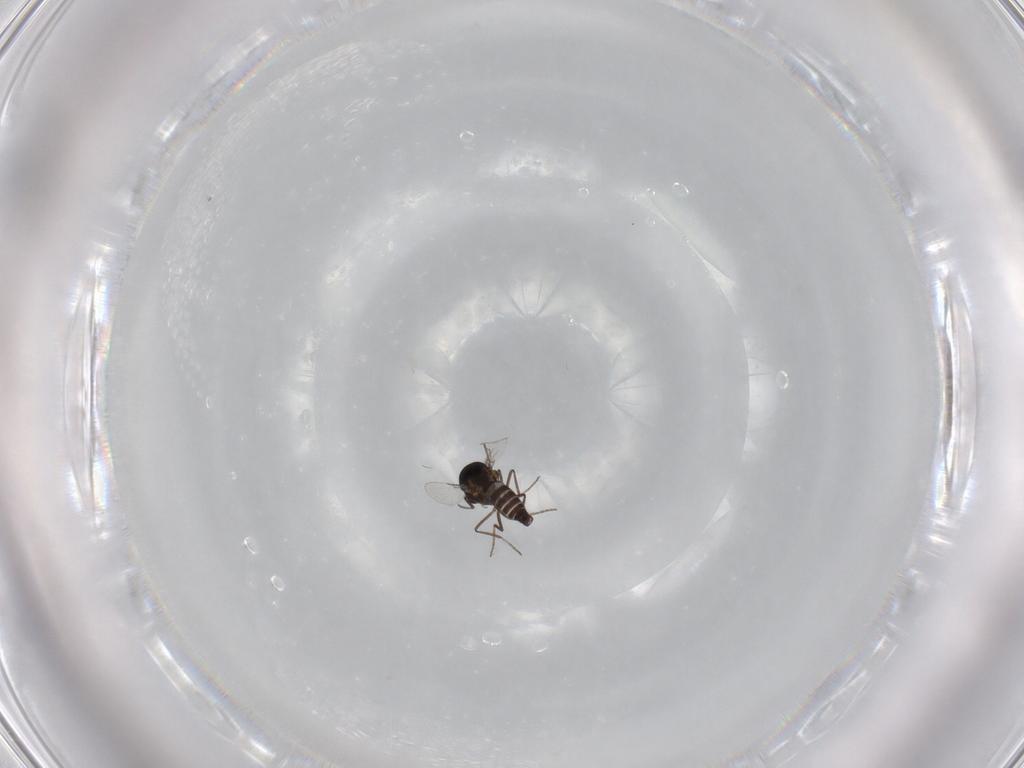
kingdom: Animalia
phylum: Arthropoda
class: Insecta
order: Diptera
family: Ceratopogonidae
